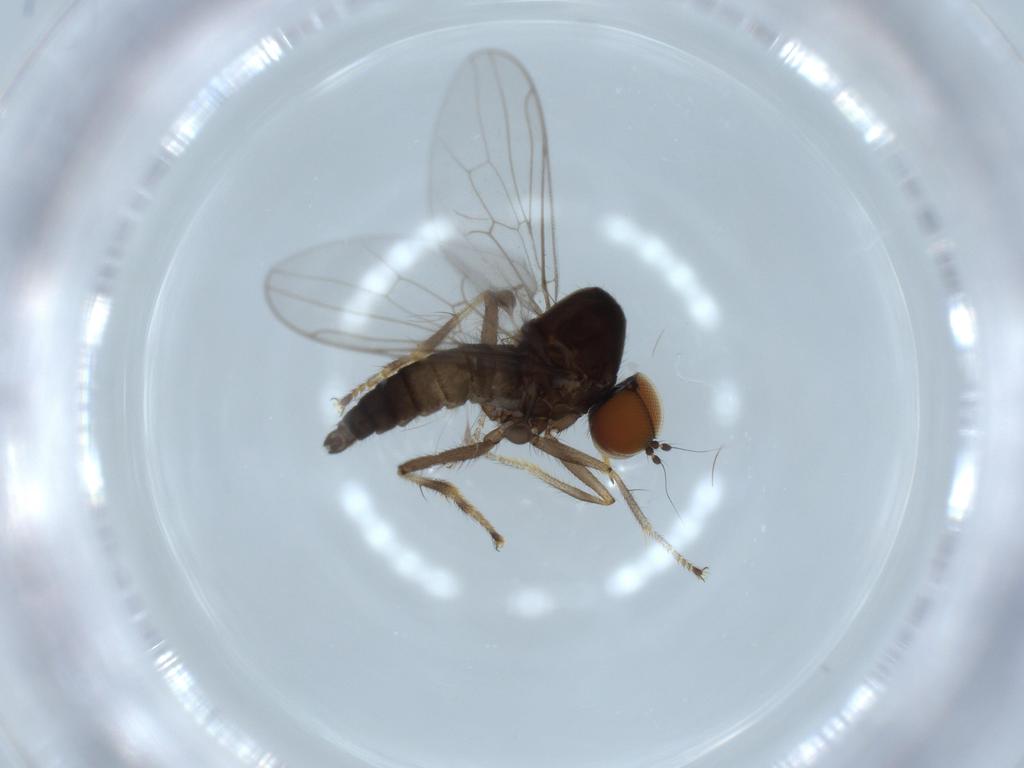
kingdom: Animalia
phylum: Arthropoda
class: Insecta
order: Diptera
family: Hybotidae
